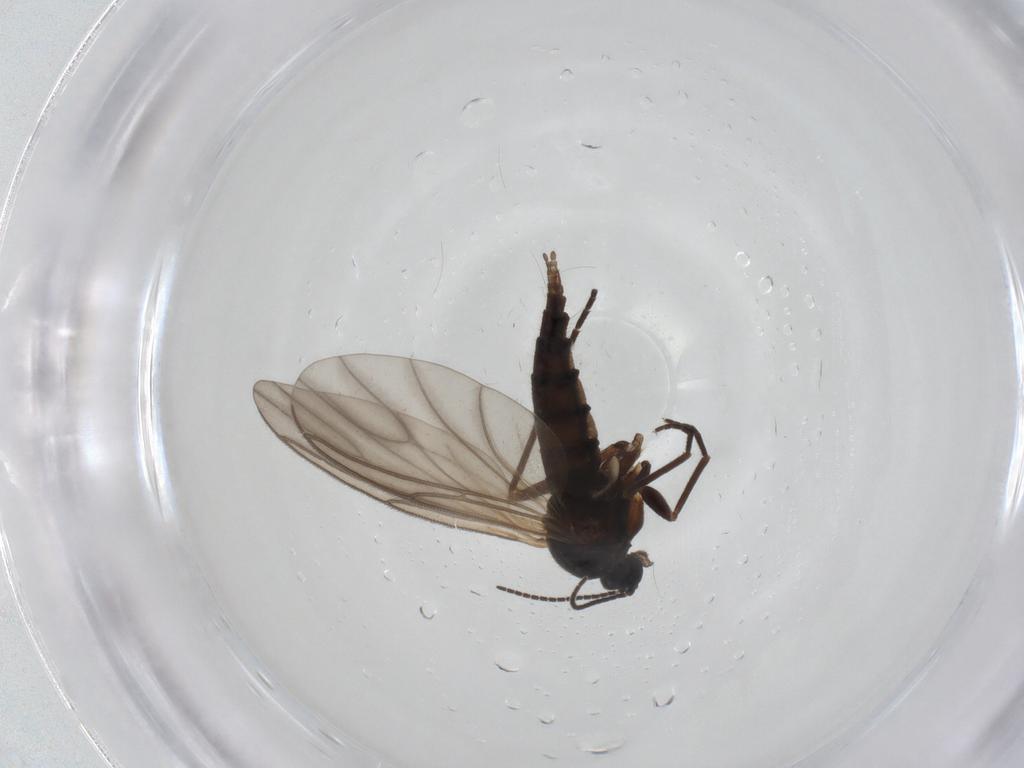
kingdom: Animalia
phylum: Arthropoda
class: Insecta
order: Diptera
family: Sciaridae
